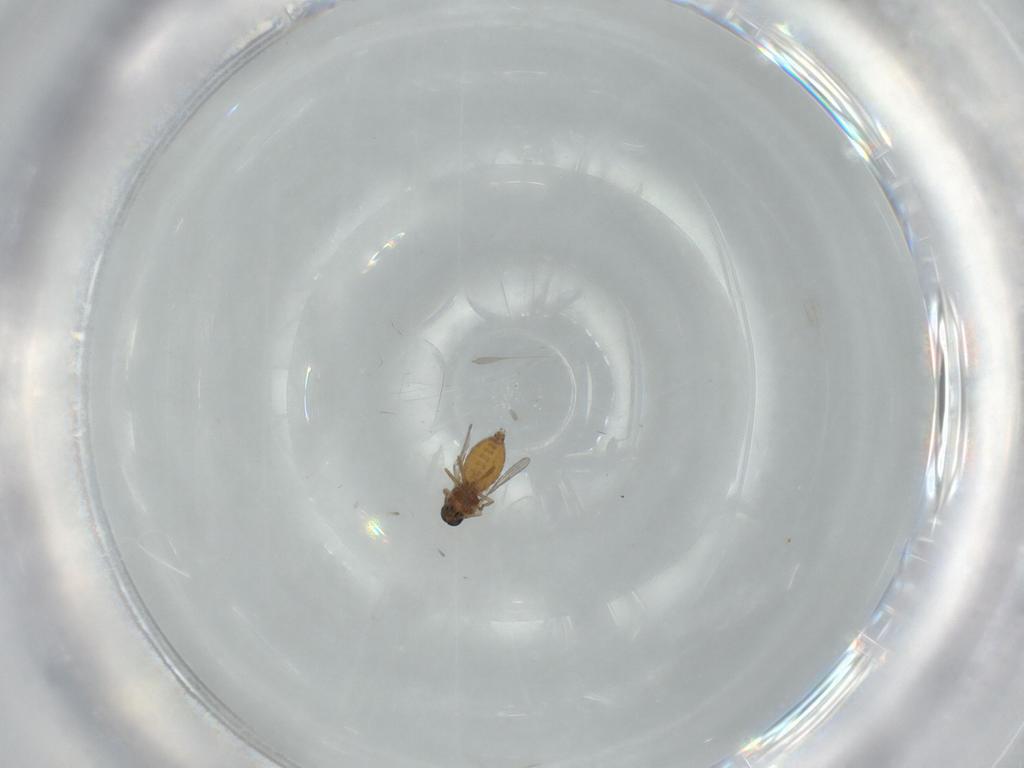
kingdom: Animalia
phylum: Arthropoda
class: Insecta
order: Diptera
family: Ceratopogonidae
